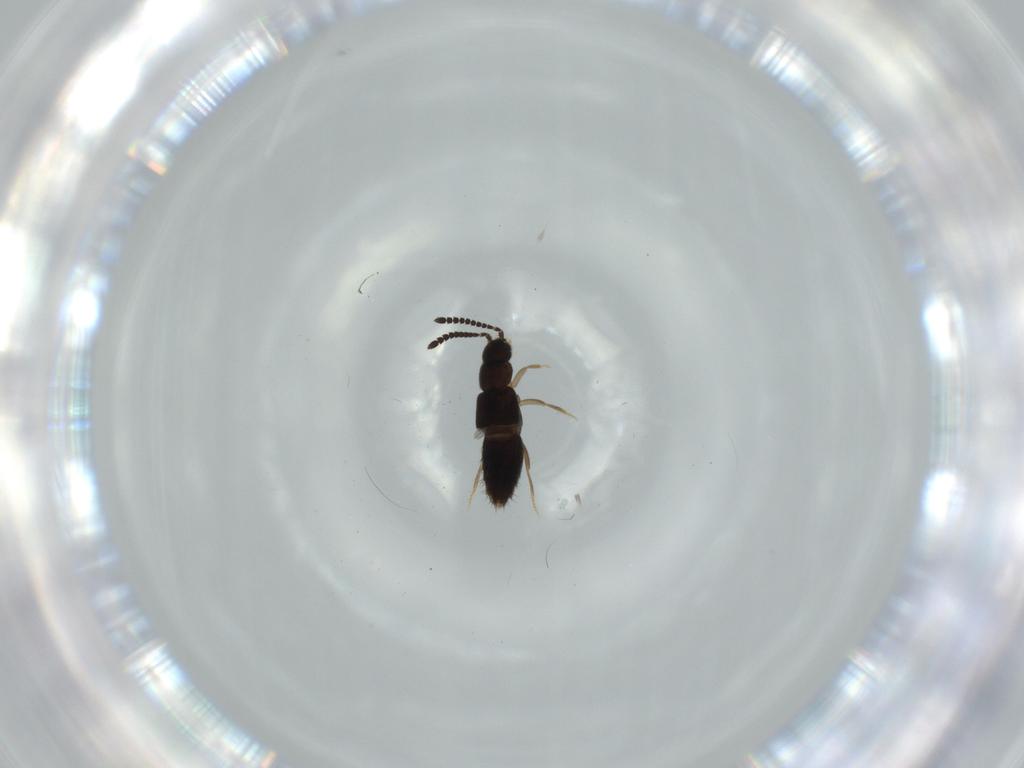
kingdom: Animalia
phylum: Arthropoda
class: Insecta
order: Coleoptera
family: Staphylinidae
